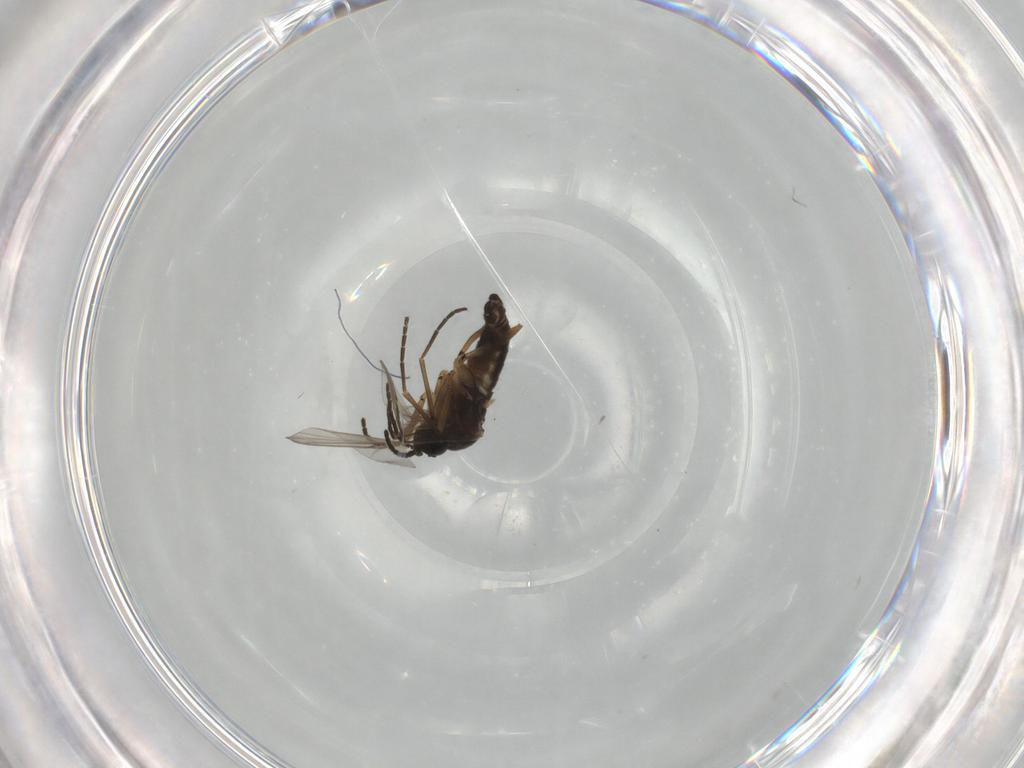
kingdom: Animalia
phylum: Arthropoda
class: Insecta
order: Diptera
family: Sciaridae
